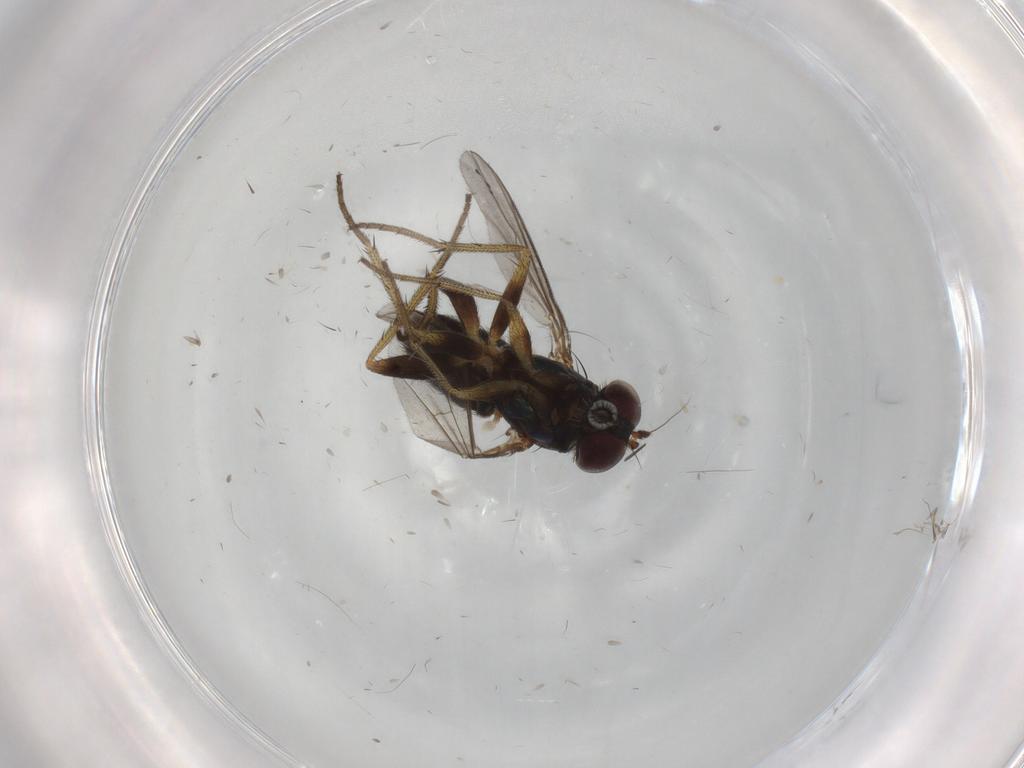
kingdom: Animalia
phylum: Arthropoda
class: Insecta
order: Diptera
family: Dolichopodidae
